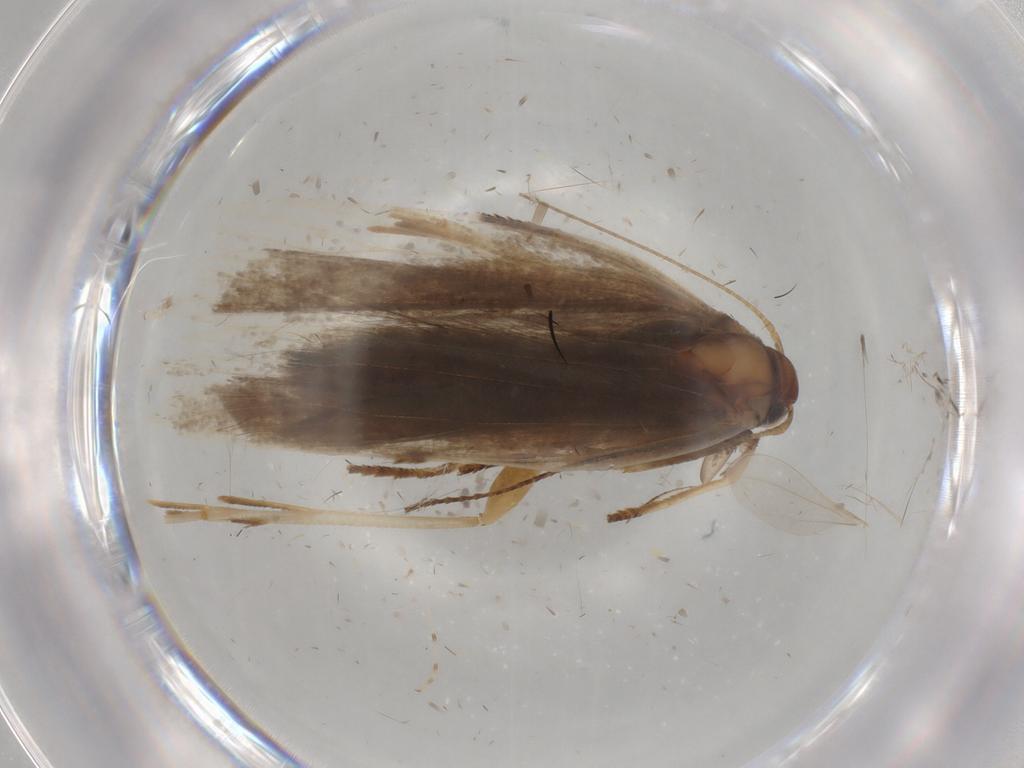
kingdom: Animalia
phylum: Arthropoda
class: Insecta
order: Lepidoptera
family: Gelechiidae
